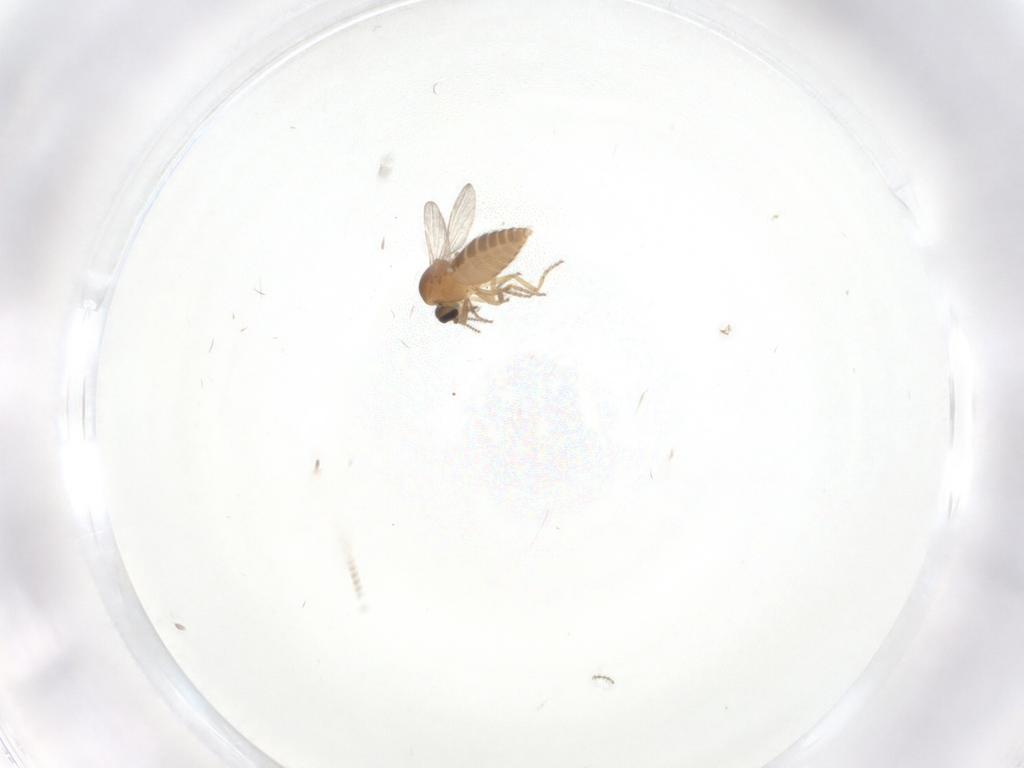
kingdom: Animalia
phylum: Arthropoda
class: Insecta
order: Diptera
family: Ceratopogonidae
